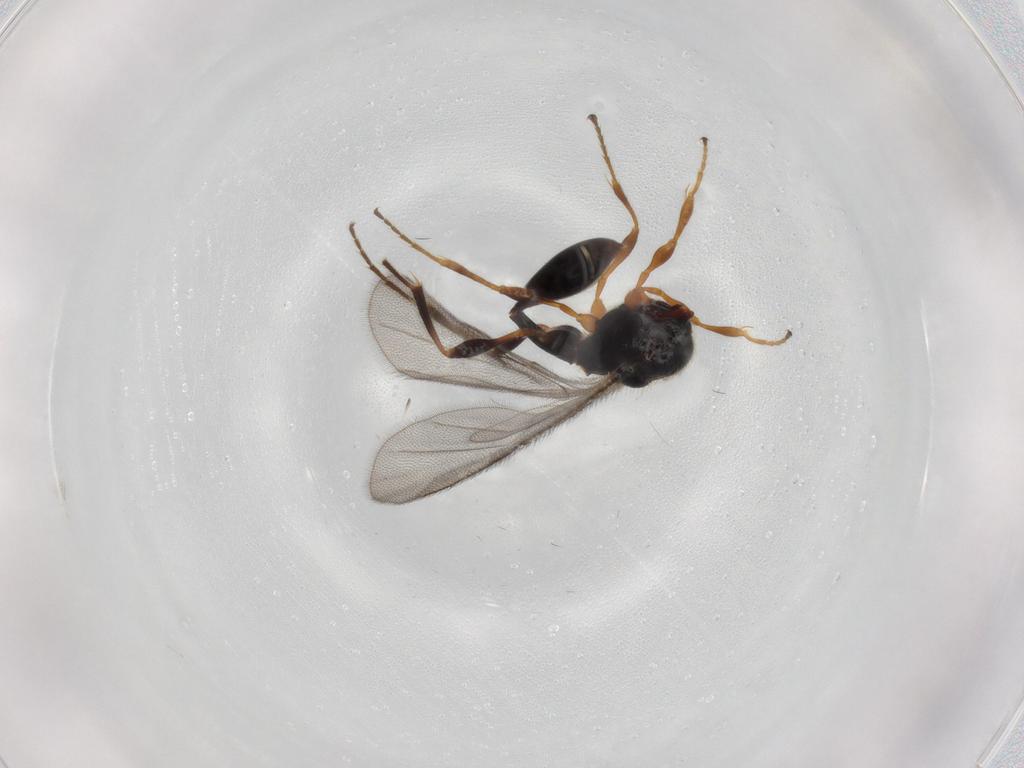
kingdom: Animalia
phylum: Arthropoda
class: Insecta
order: Hymenoptera
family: Diapriidae
